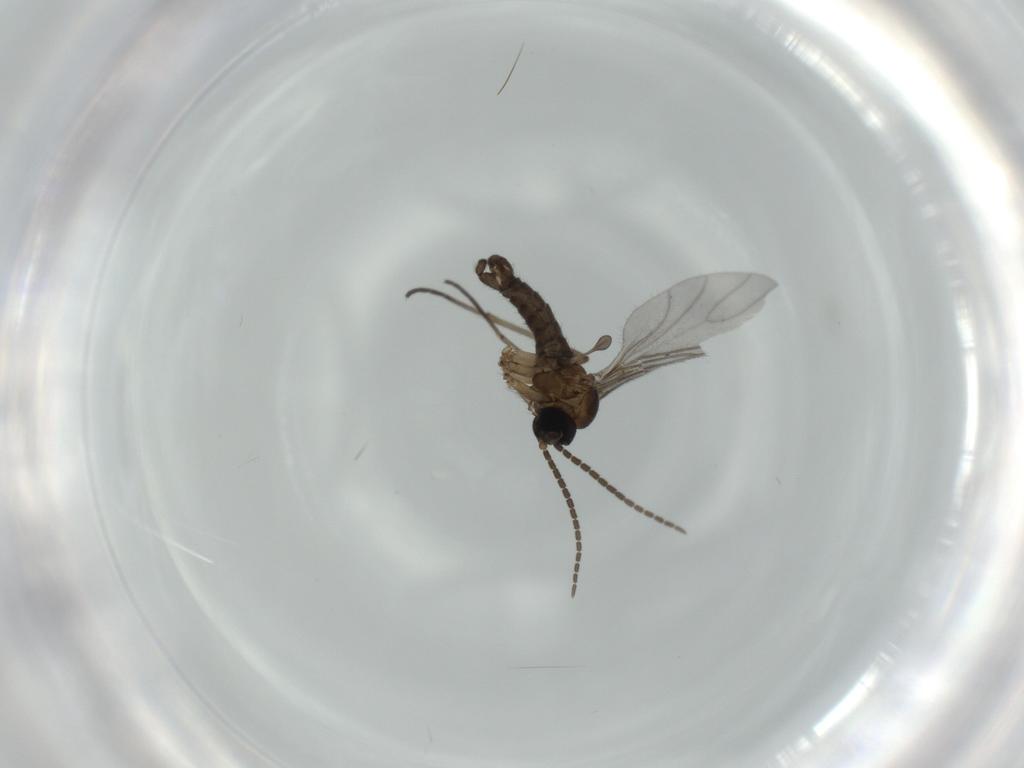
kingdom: Animalia
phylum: Arthropoda
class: Insecta
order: Diptera
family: Sciaridae
